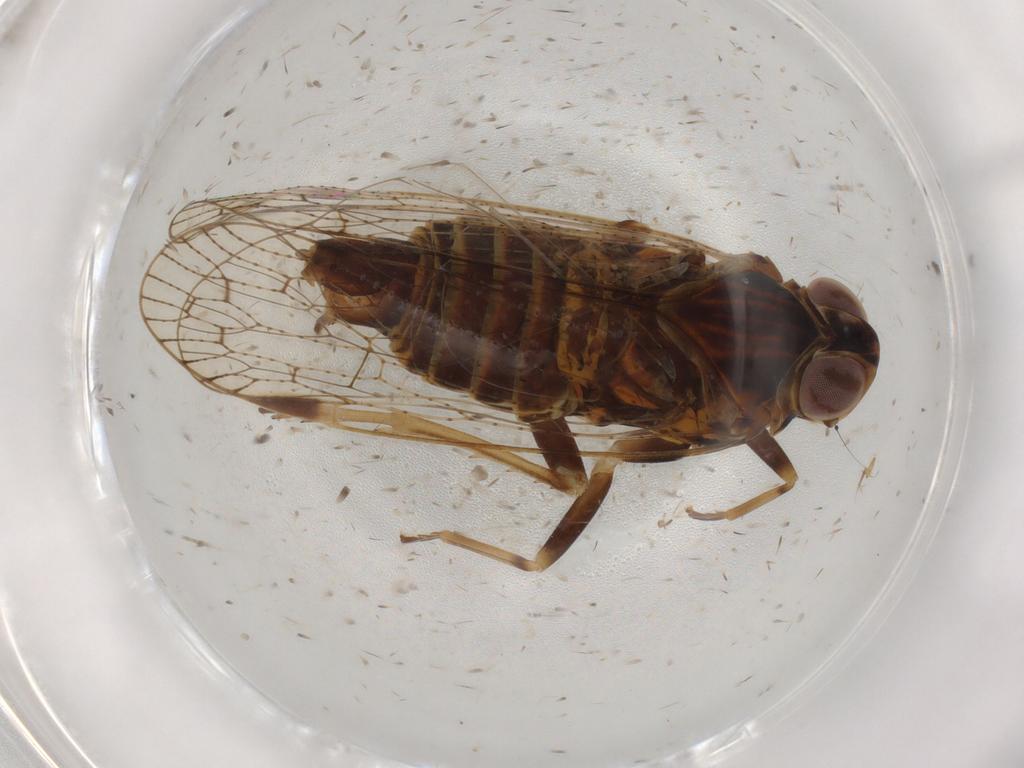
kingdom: Animalia
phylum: Arthropoda
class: Insecta
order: Hemiptera
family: Cixiidae
